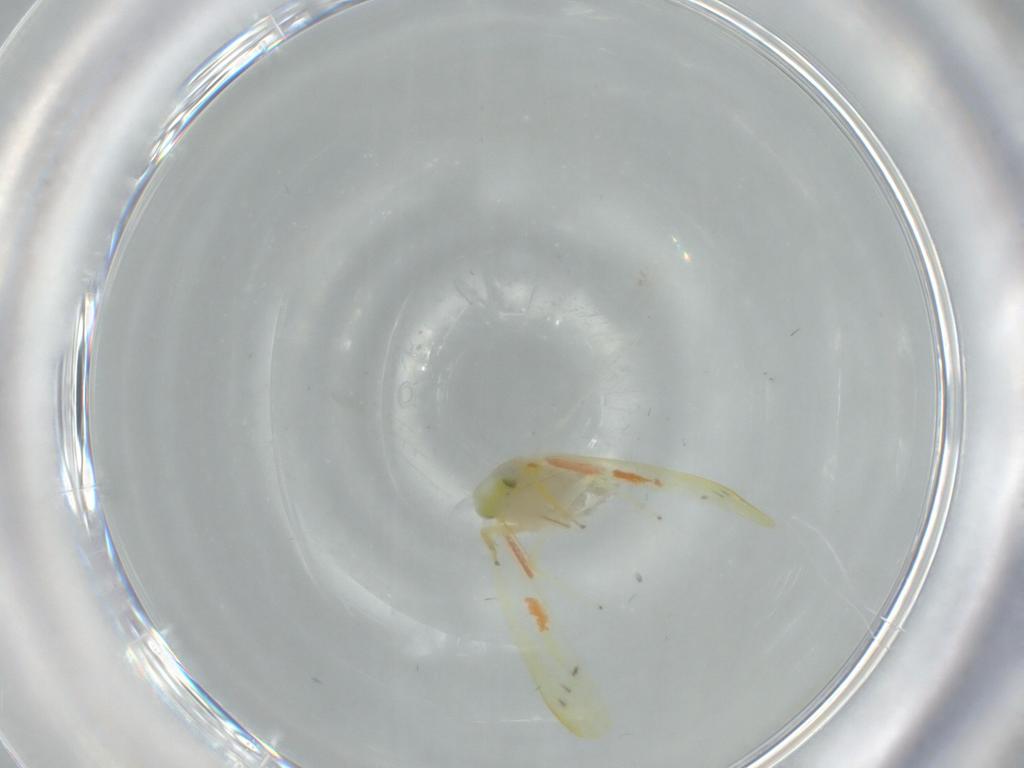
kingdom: Animalia
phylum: Arthropoda
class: Insecta
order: Hemiptera
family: Cicadellidae
